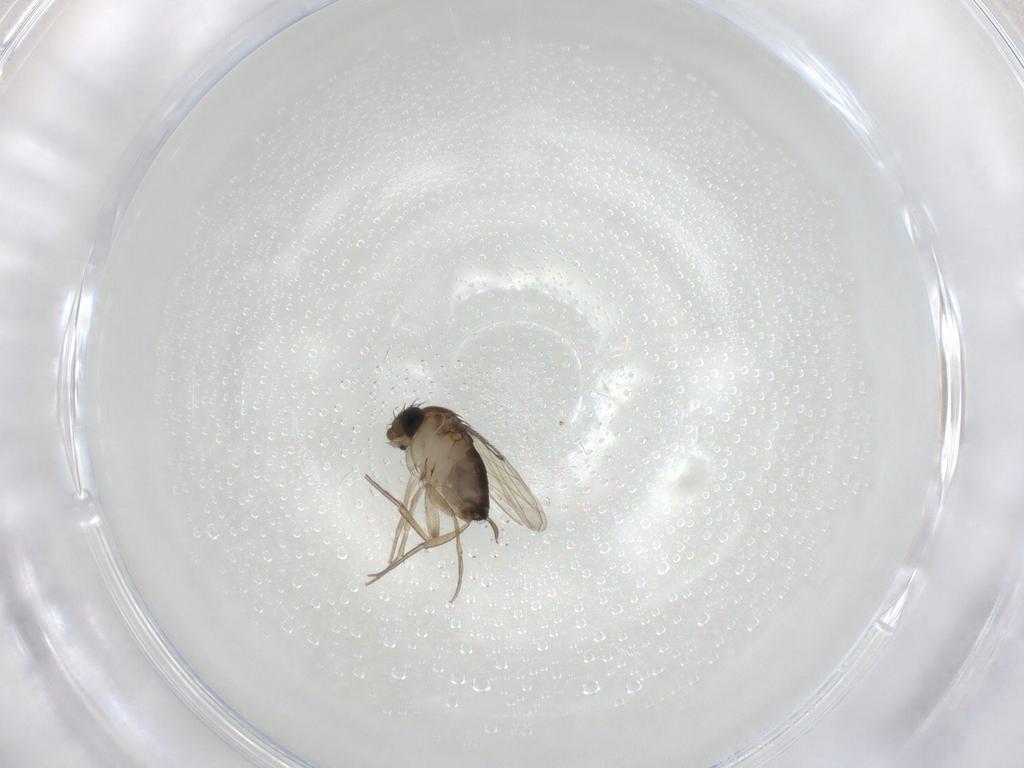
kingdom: Animalia
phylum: Arthropoda
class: Insecta
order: Diptera
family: Phoridae
